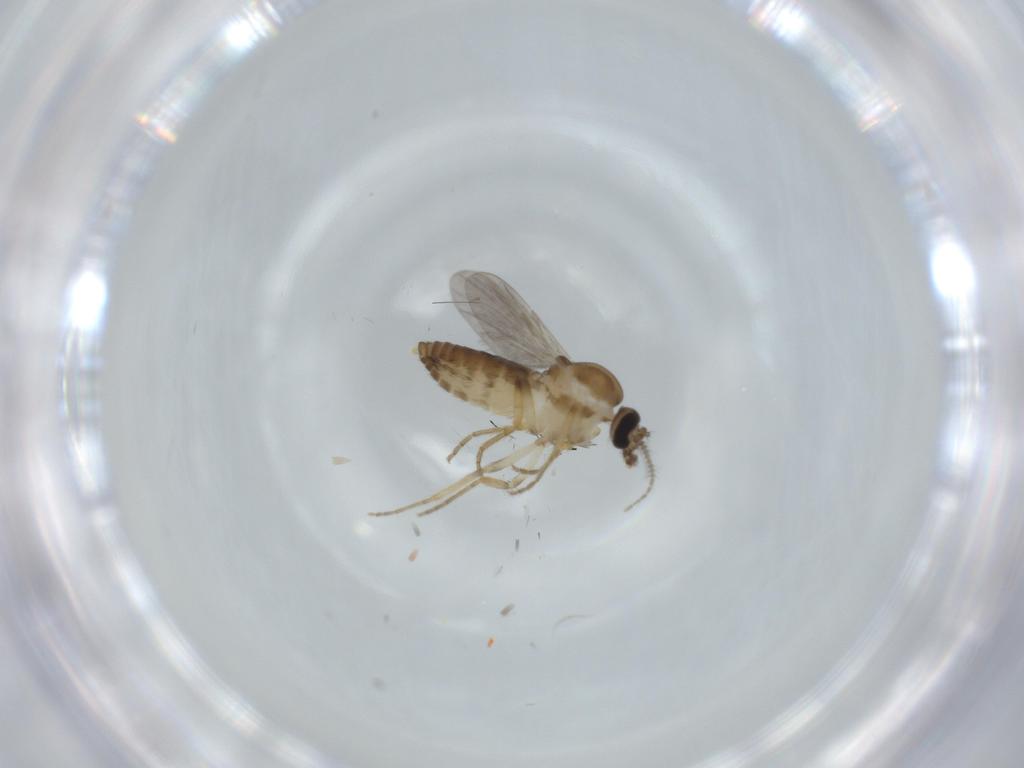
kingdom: Animalia
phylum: Arthropoda
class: Insecta
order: Diptera
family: Ceratopogonidae
